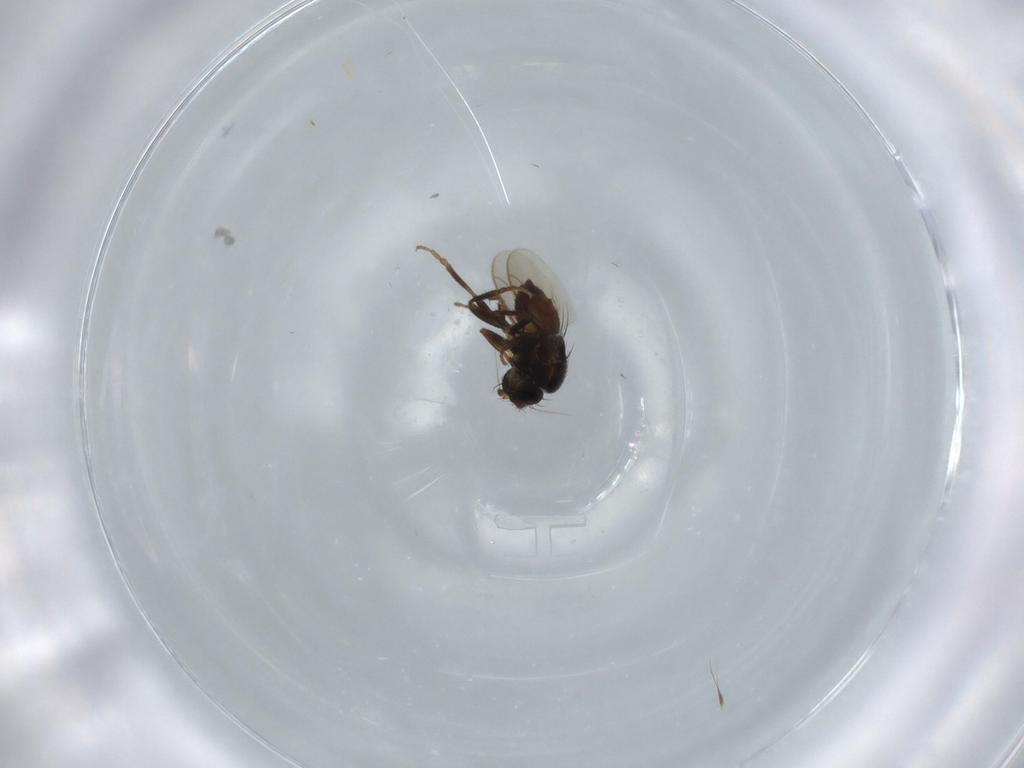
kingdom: Animalia
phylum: Arthropoda
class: Insecta
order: Diptera
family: Sphaeroceridae
